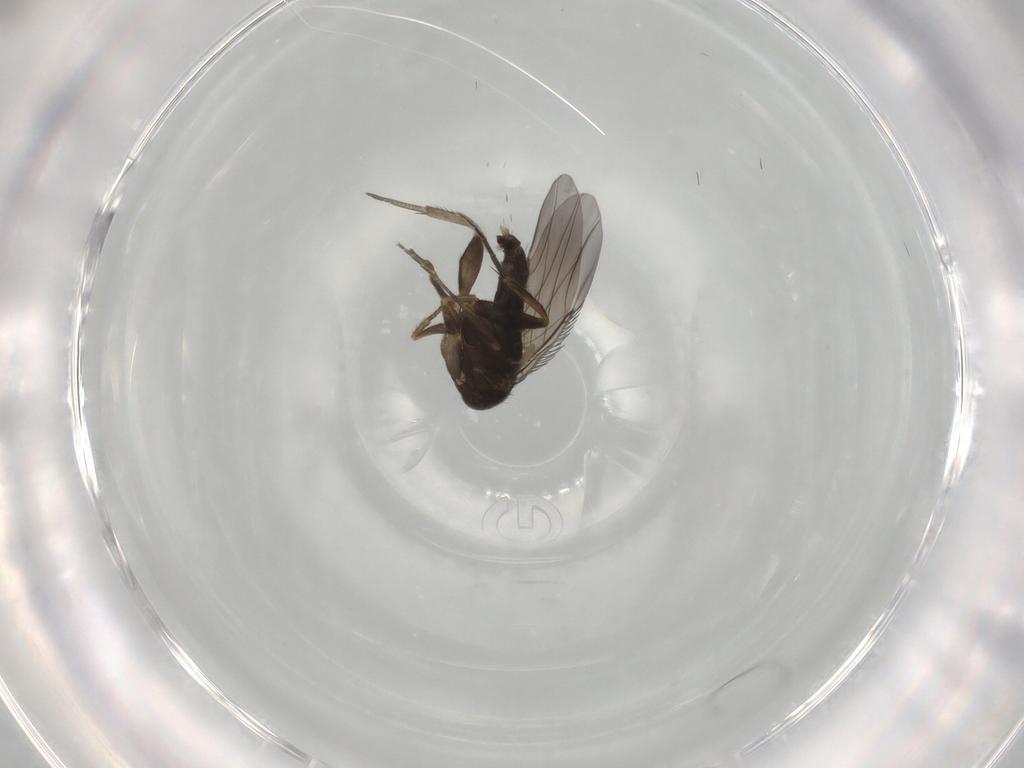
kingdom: Animalia
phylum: Arthropoda
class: Insecta
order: Diptera
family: Phoridae
